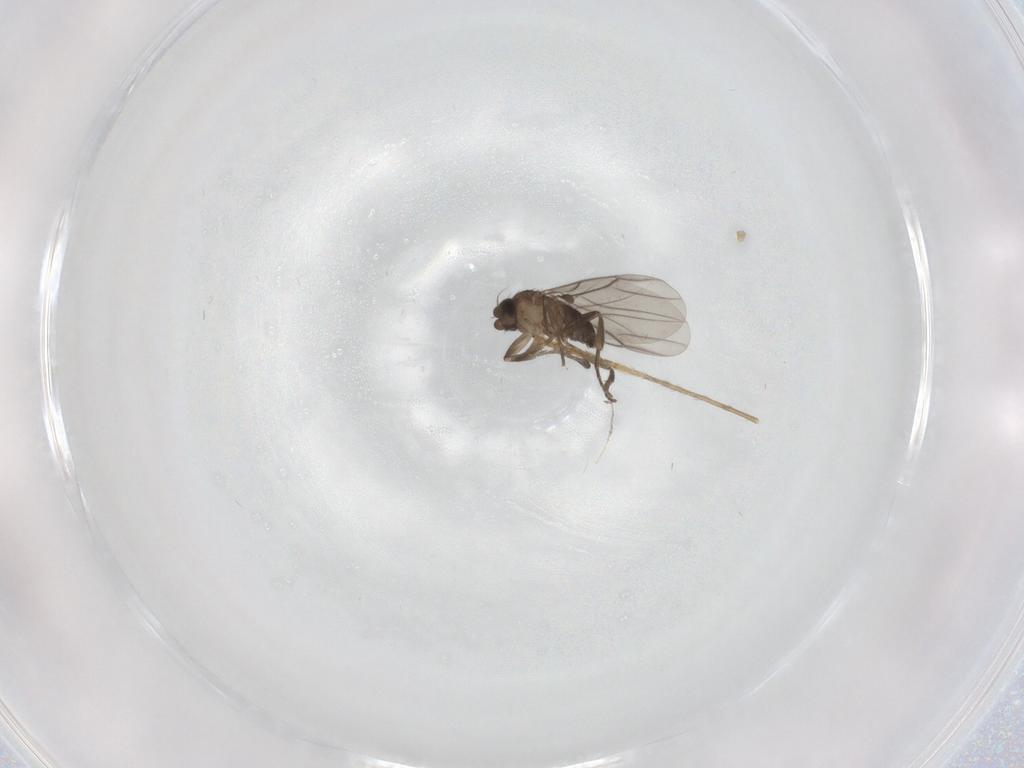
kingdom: Animalia
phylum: Arthropoda
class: Insecta
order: Diptera
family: Limoniidae
